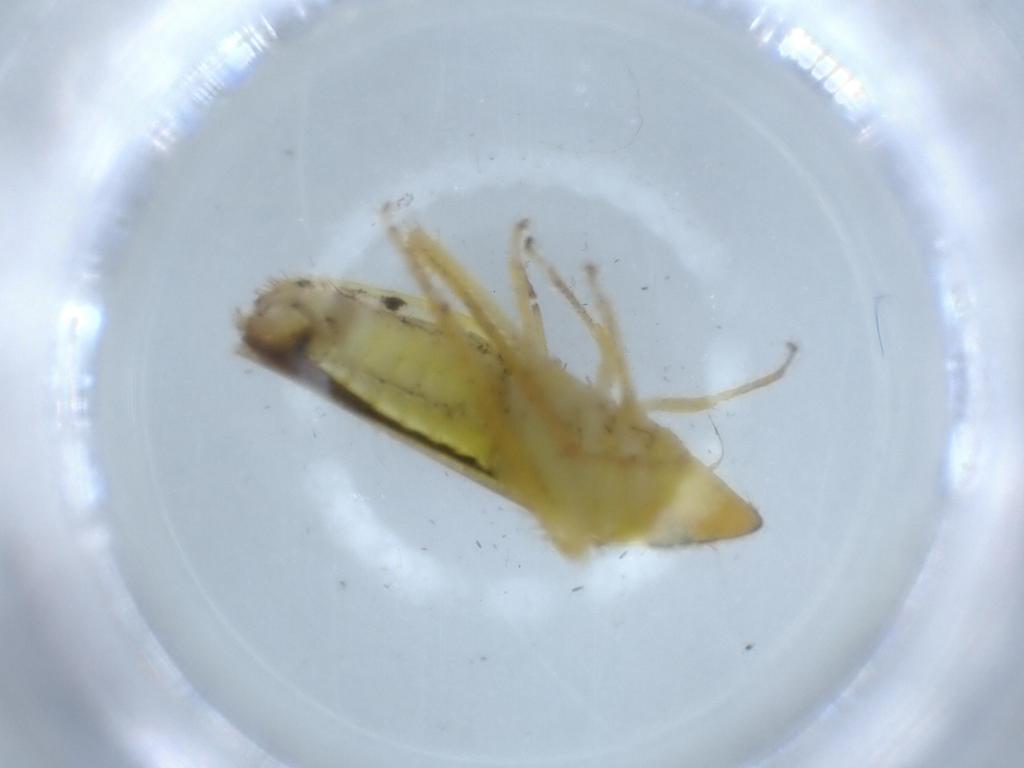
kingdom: Animalia
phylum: Arthropoda
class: Insecta
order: Hemiptera
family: Cicadellidae
